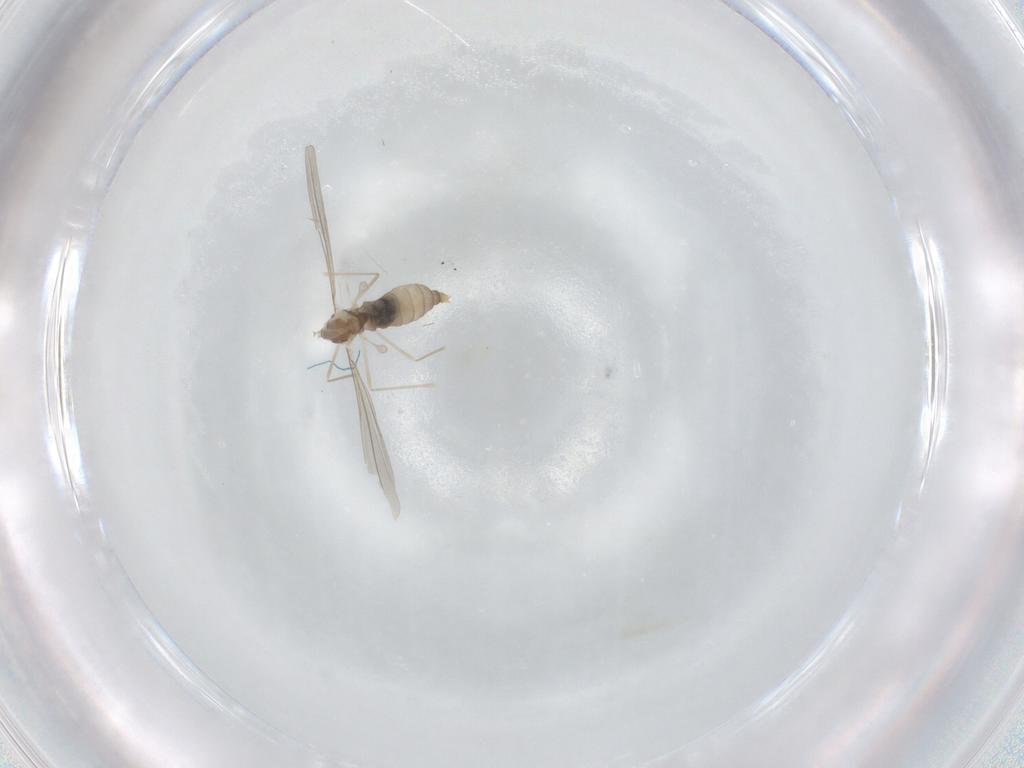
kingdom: Animalia
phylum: Arthropoda
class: Insecta
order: Diptera
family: Cecidomyiidae
